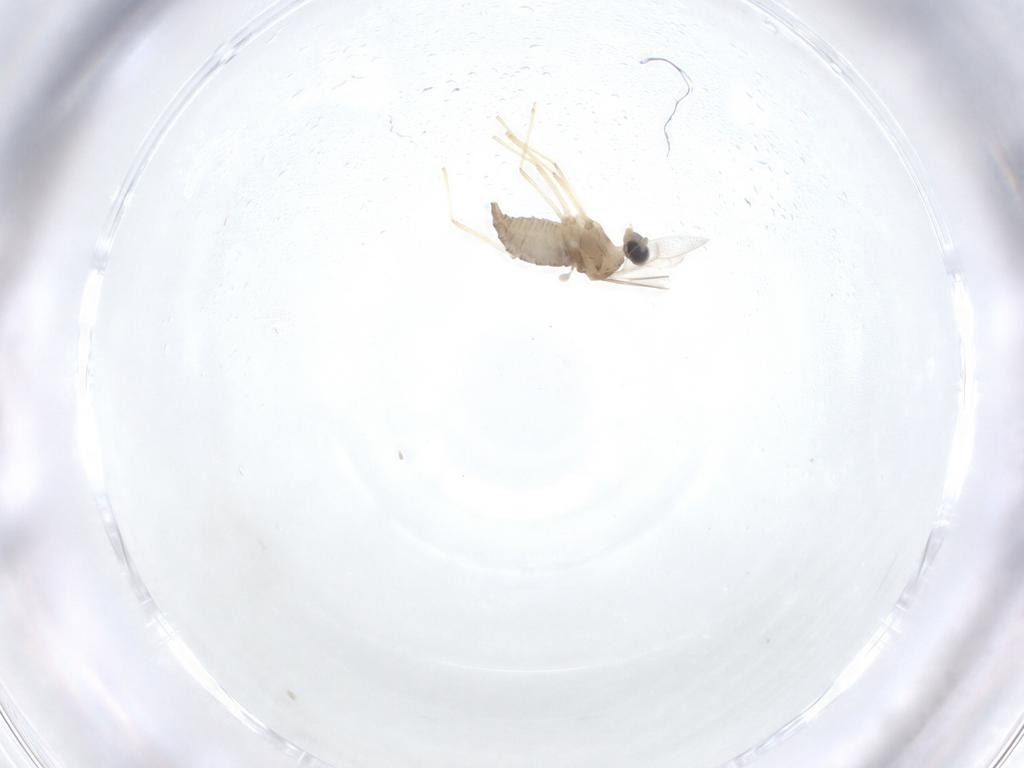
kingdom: Animalia
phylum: Arthropoda
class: Insecta
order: Diptera
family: Cecidomyiidae
